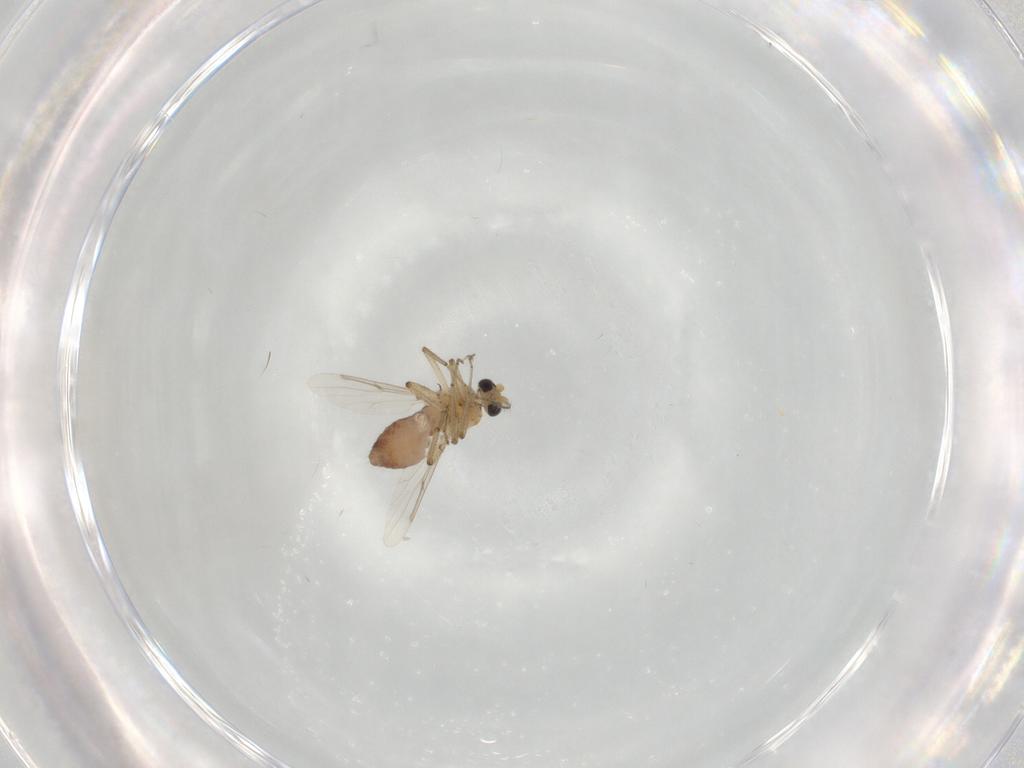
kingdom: Animalia
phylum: Arthropoda
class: Insecta
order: Diptera
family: Ceratopogonidae
